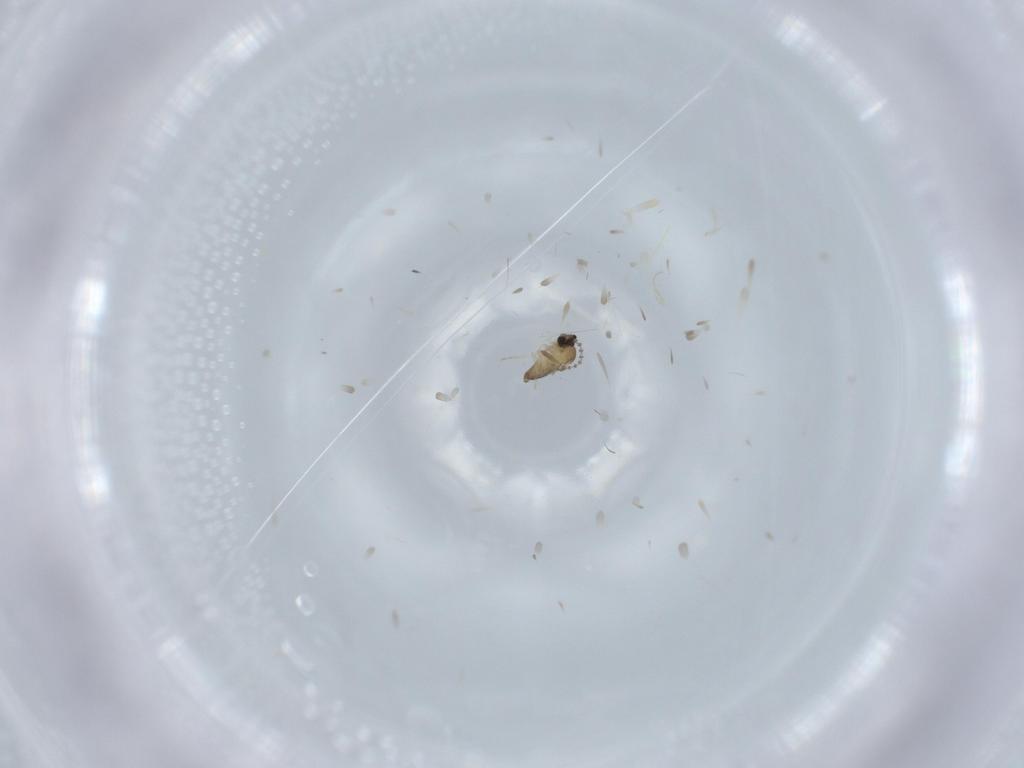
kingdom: Animalia
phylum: Arthropoda
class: Insecta
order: Diptera
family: Cecidomyiidae
